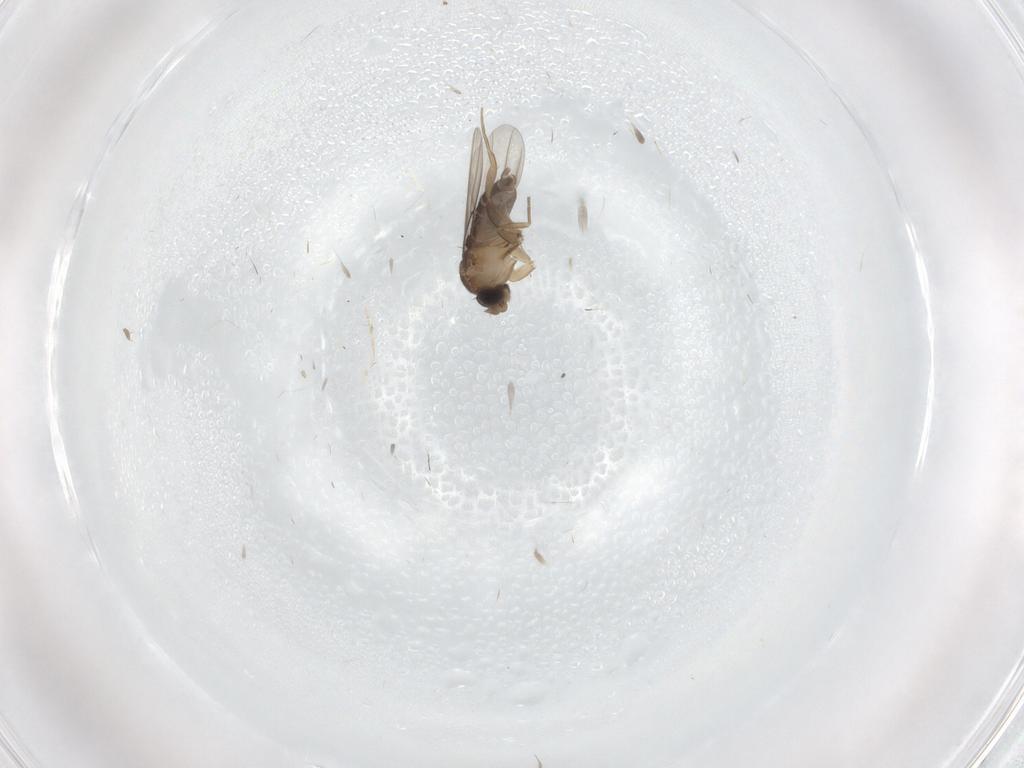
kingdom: Animalia
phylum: Arthropoda
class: Insecta
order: Diptera
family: Phoridae
